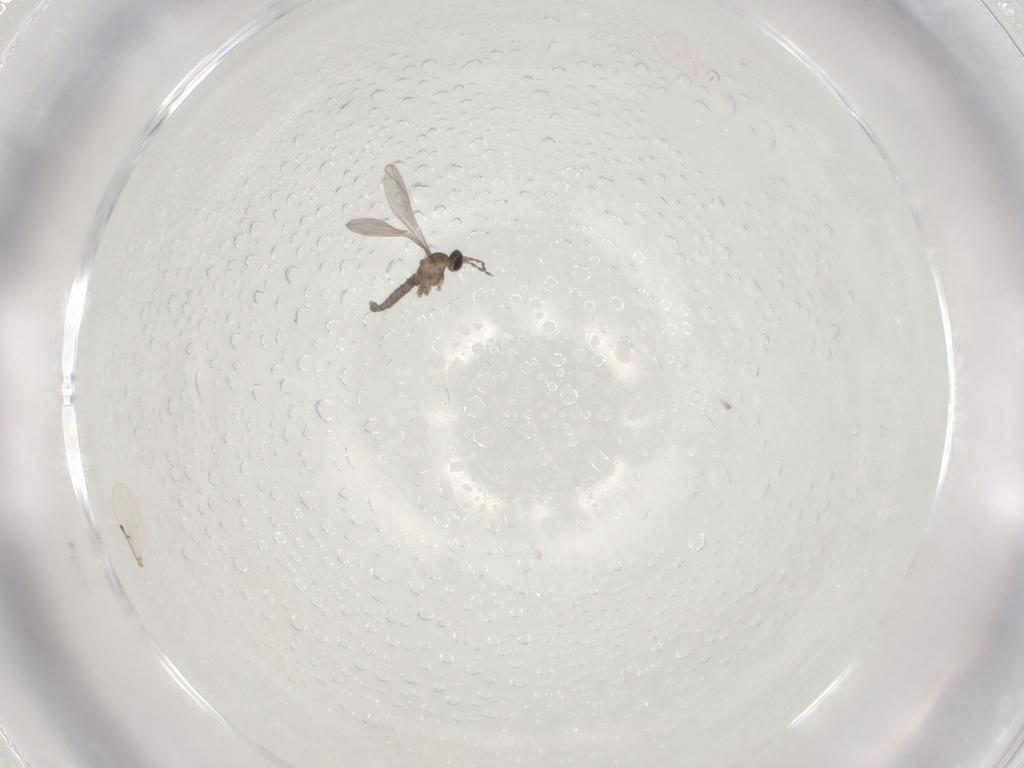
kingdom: Animalia
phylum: Arthropoda
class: Insecta
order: Diptera
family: Cecidomyiidae
